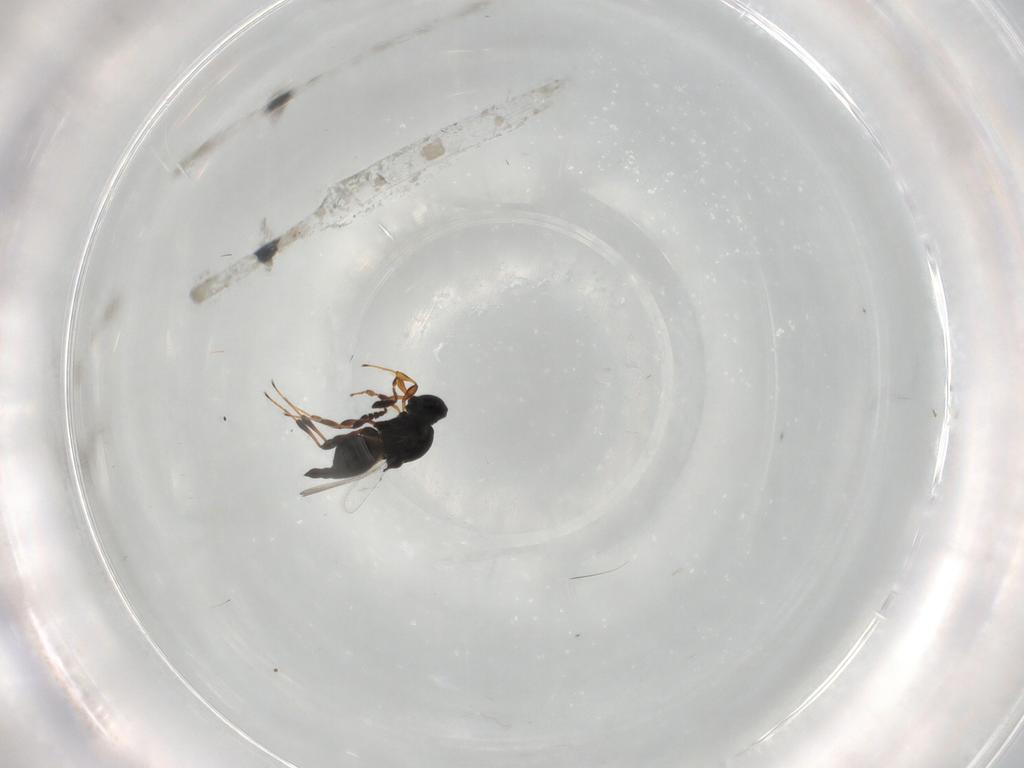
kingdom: Animalia
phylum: Arthropoda
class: Insecta
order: Hymenoptera
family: Platygastridae
